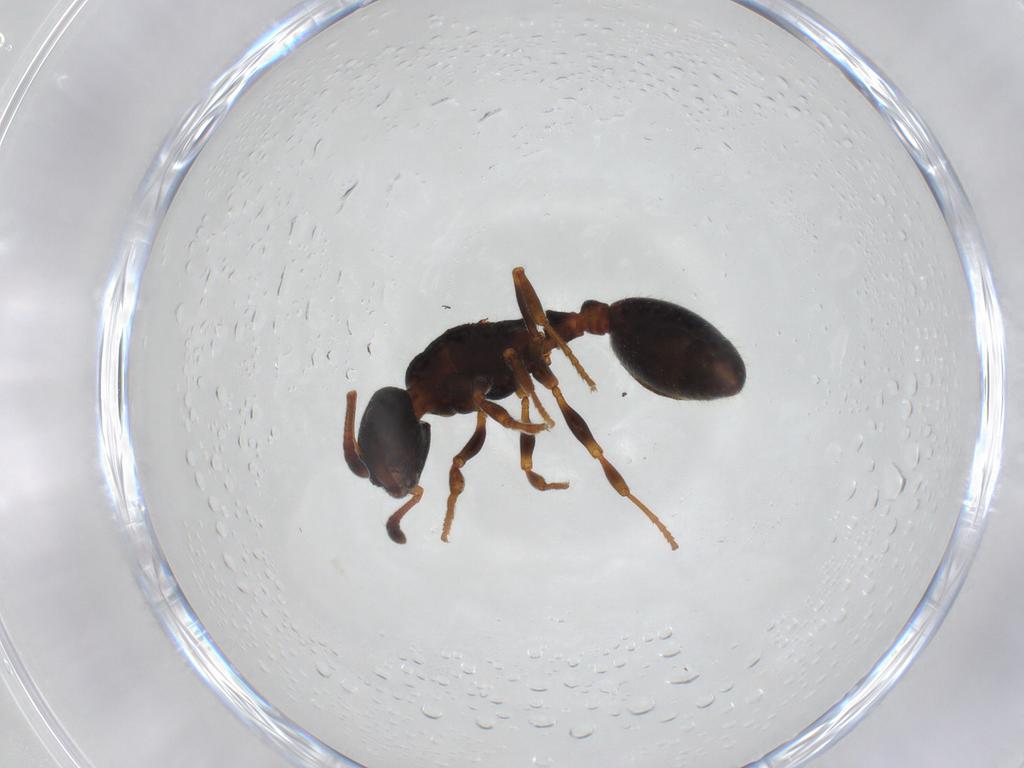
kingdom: Animalia
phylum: Arthropoda
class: Insecta
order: Hymenoptera
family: Formicidae
